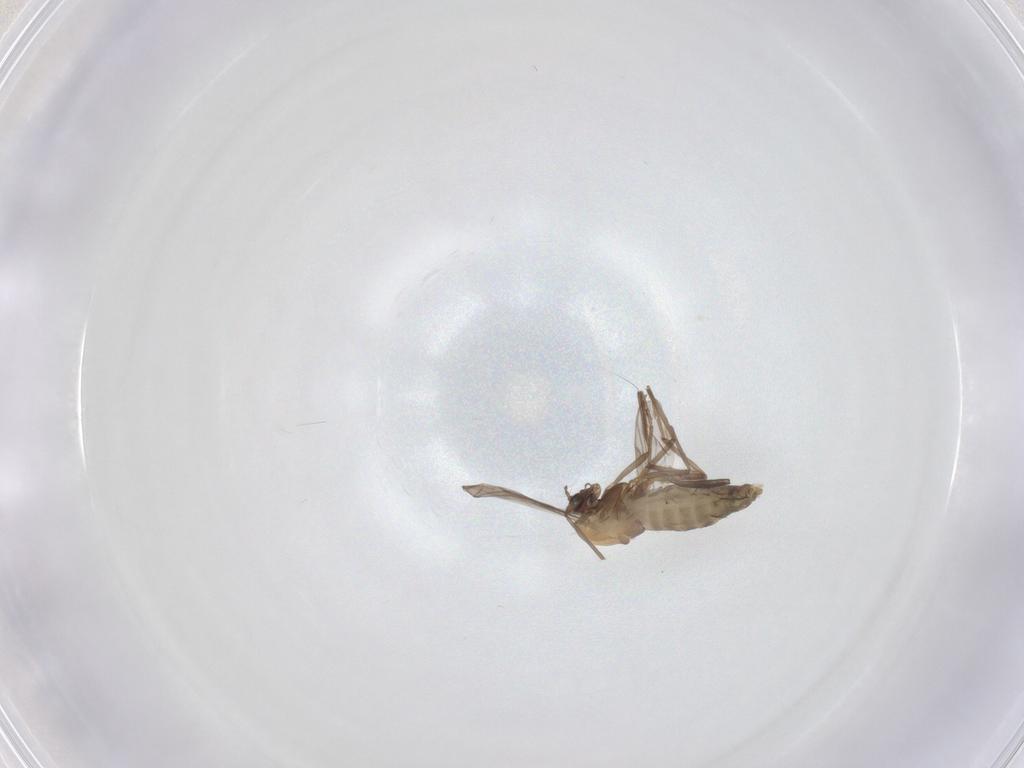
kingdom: Animalia
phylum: Arthropoda
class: Insecta
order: Diptera
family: Chironomidae
